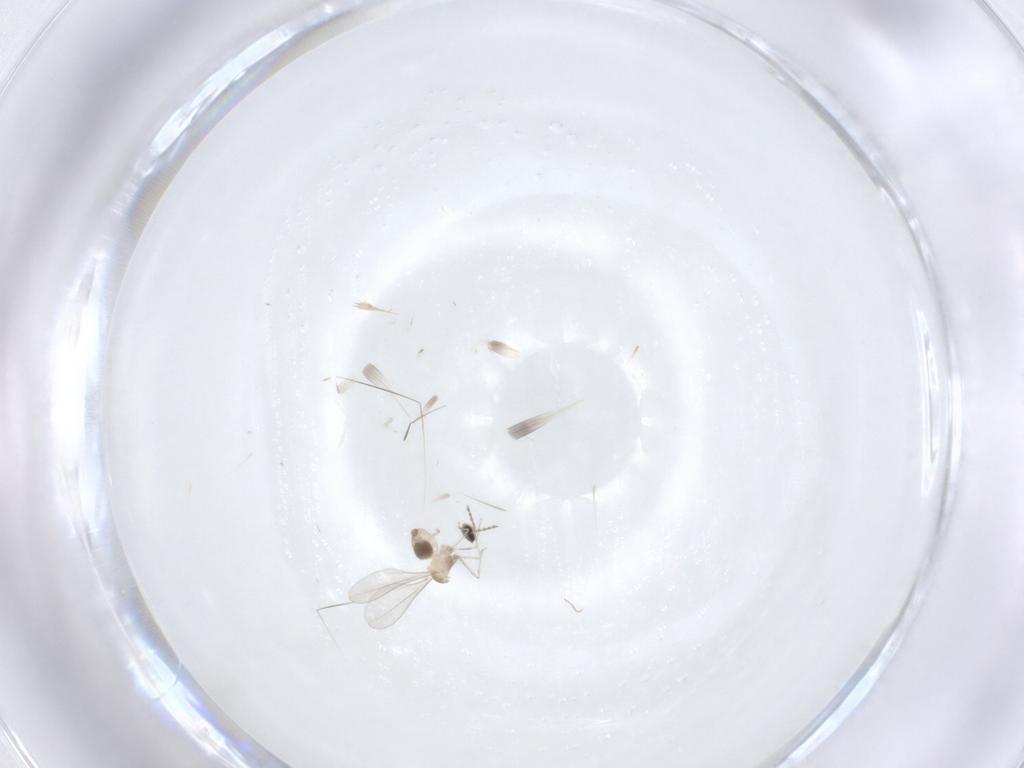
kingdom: Animalia
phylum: Arthropoda
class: Insecta
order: Diptera
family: Cecidomyiidae
